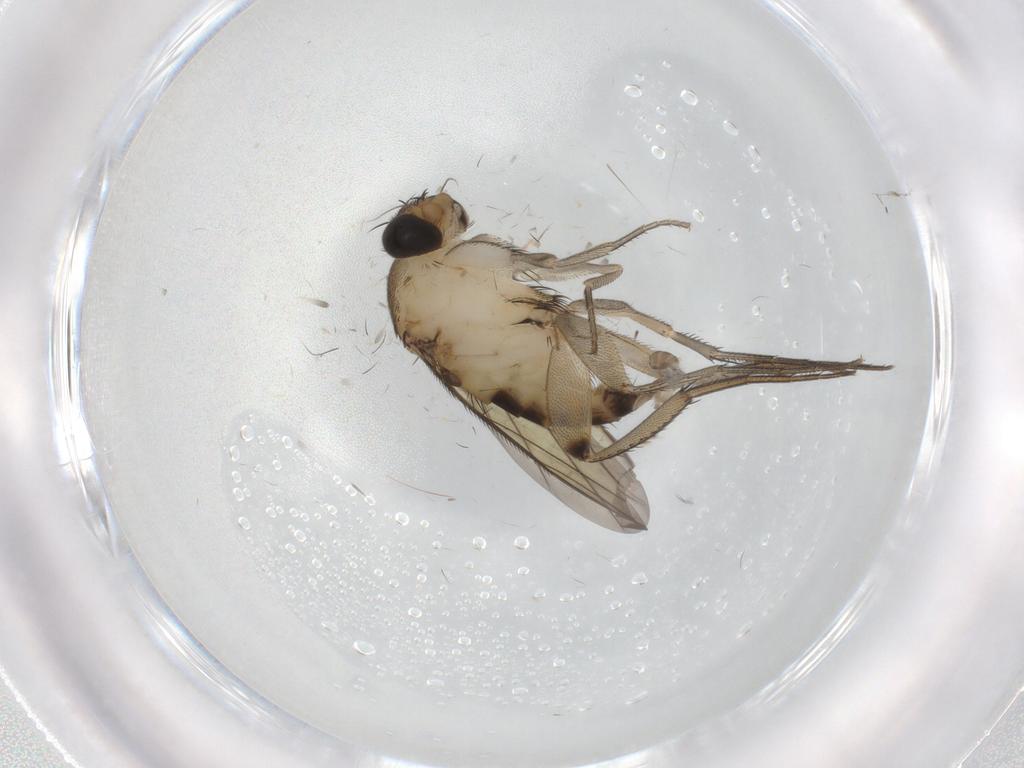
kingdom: Animalia
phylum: Arthropoda
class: Insecta
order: Diptera
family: Phoridae
